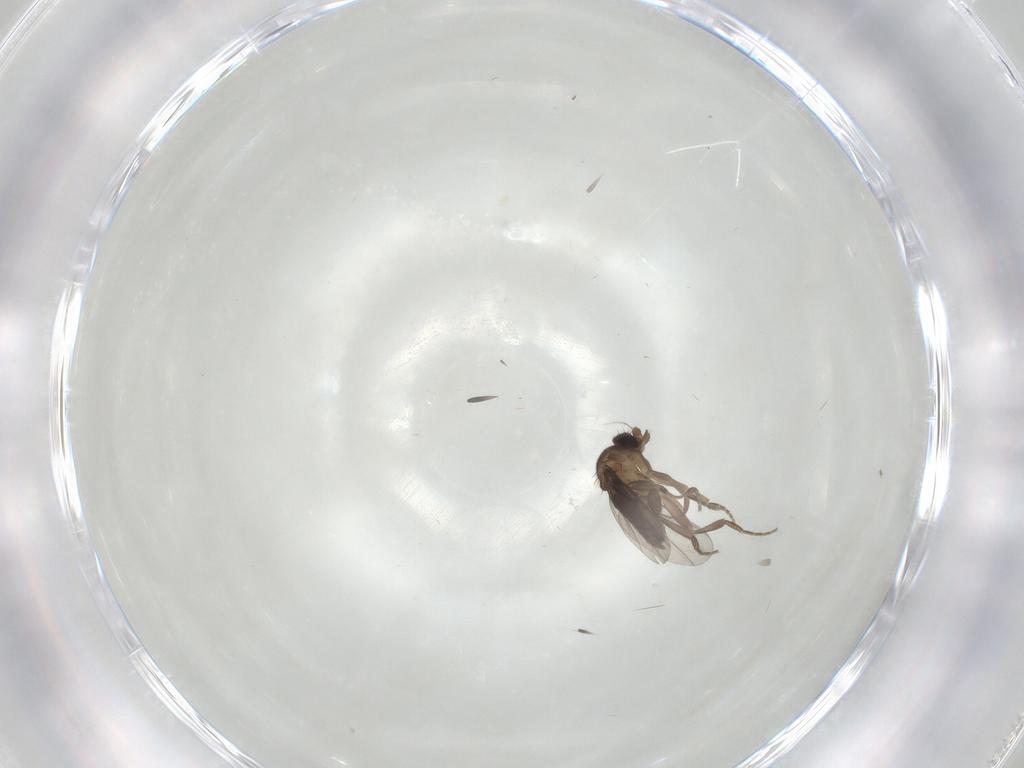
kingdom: Animalia
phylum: Arthropoda
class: Insecta
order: Diptera
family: Phoridae
